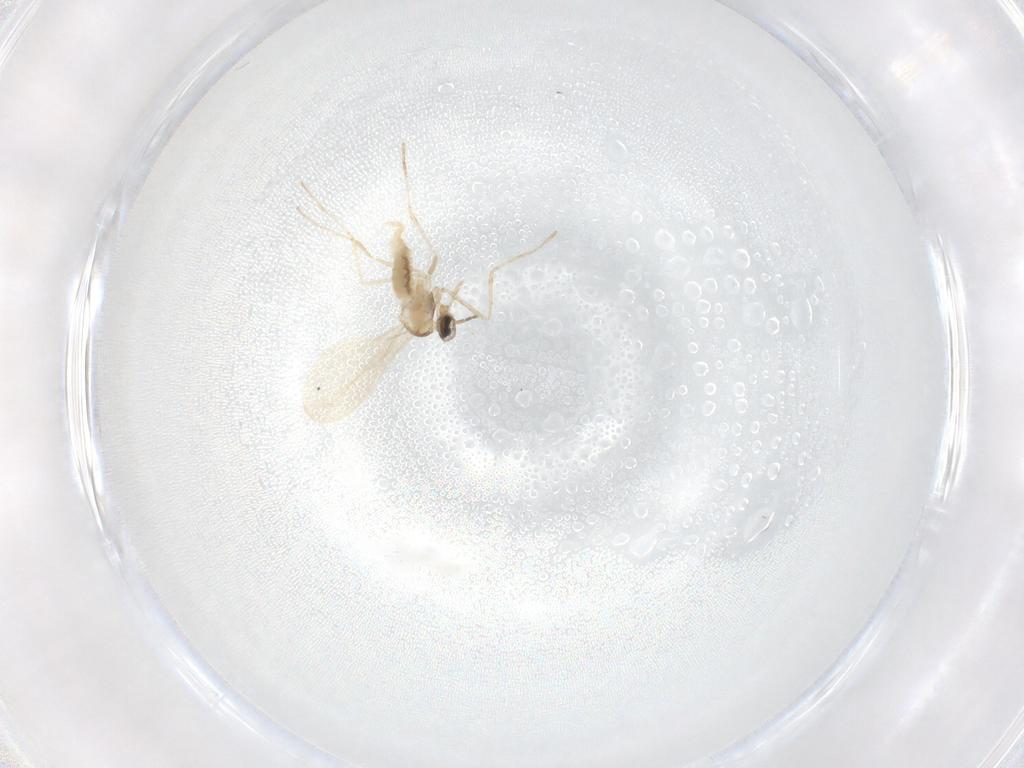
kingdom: Animalia
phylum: Arthropoda
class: Insecta
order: Diptera
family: Cecidomyiidae
